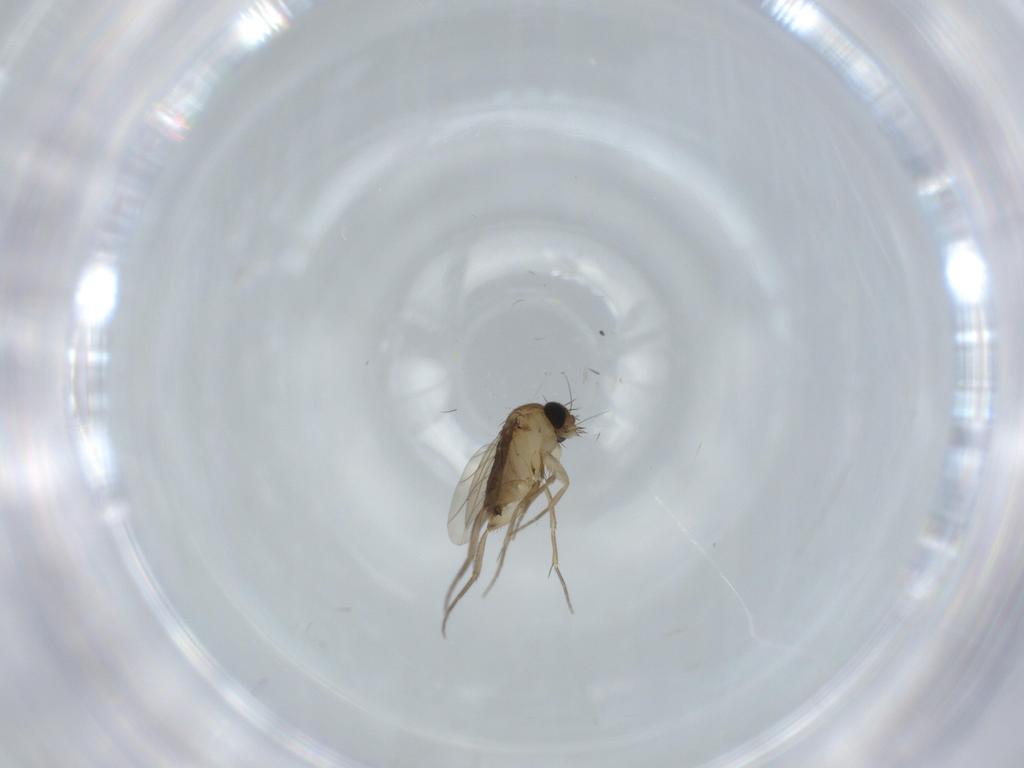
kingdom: Animalia
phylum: Arthropoda
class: Insecta
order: Diptera
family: Phoridae
